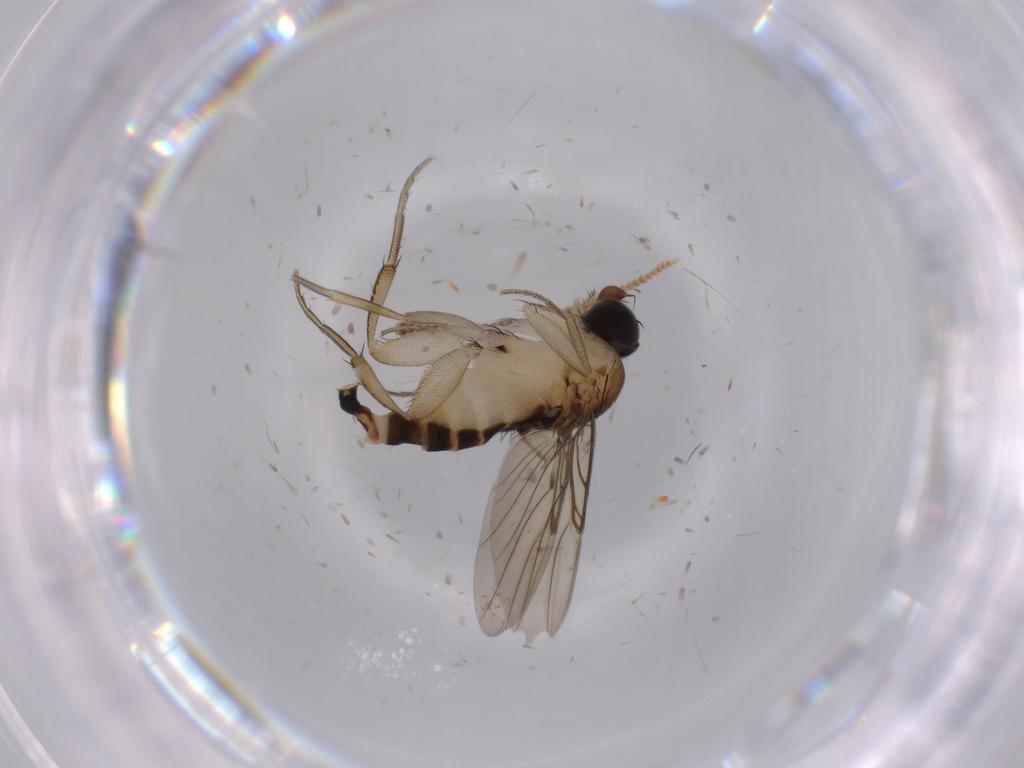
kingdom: Animalia
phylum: Arthropoda
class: Insecta
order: Diptera
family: Phoridae
